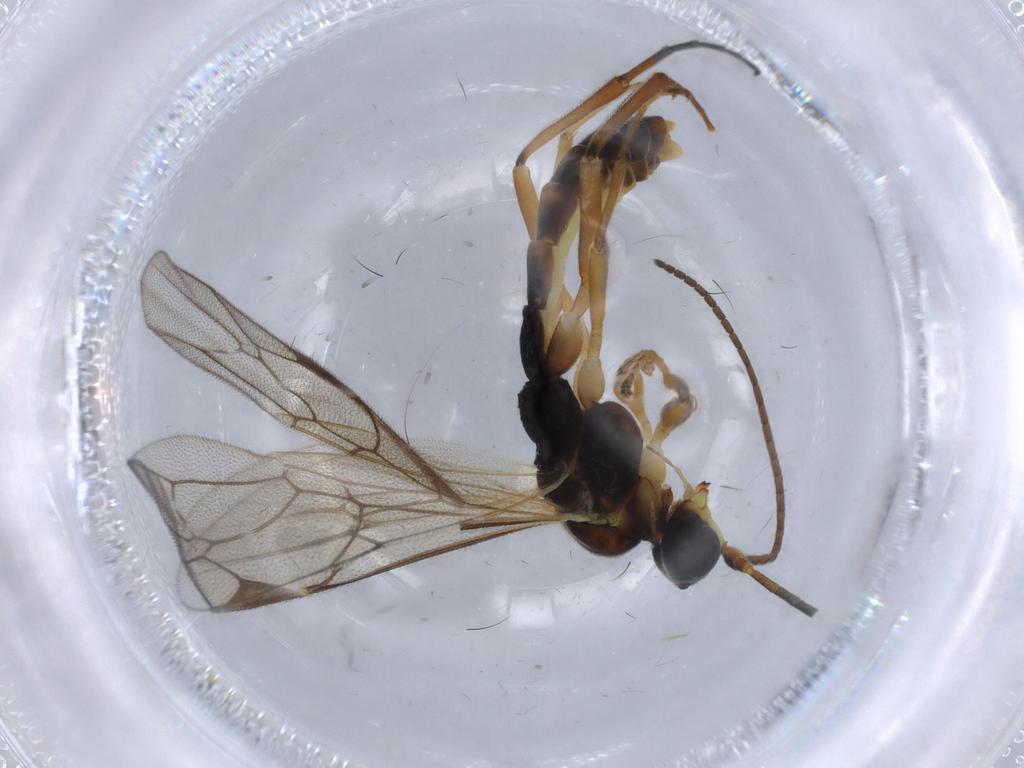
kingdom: Animalia
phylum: Arthropoda
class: Insecta
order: Hymenoptera
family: Ichneumonidae
